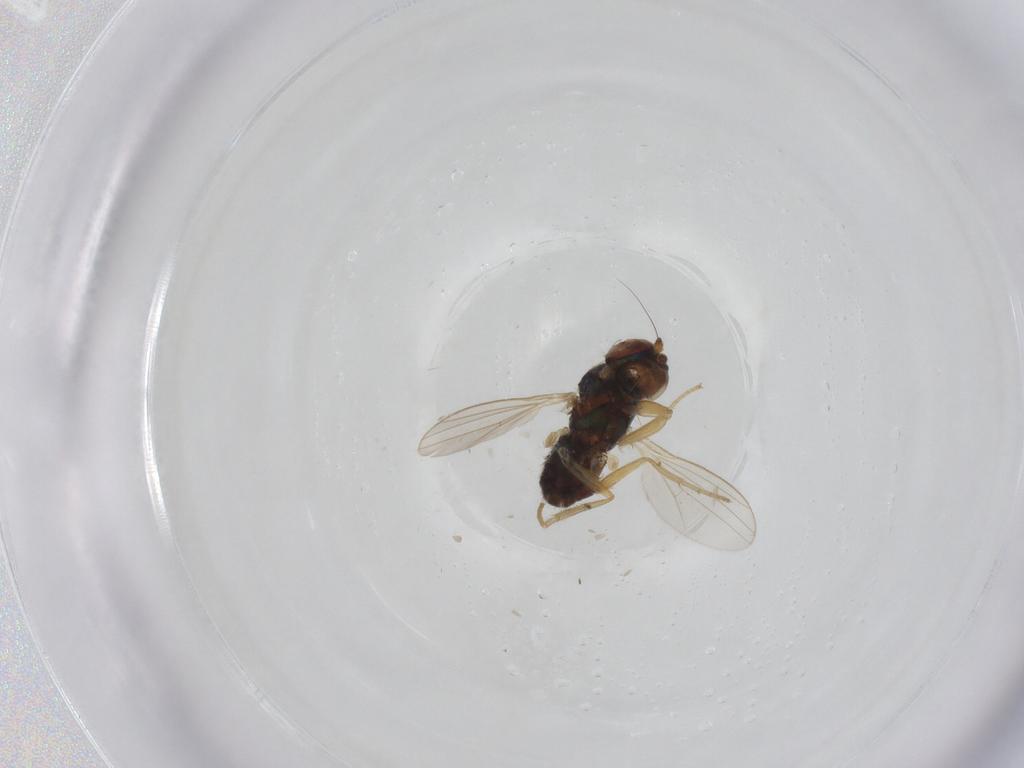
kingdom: Animalia
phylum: Arthropoda
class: Insecta
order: Diptera
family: Dolichopodidae
